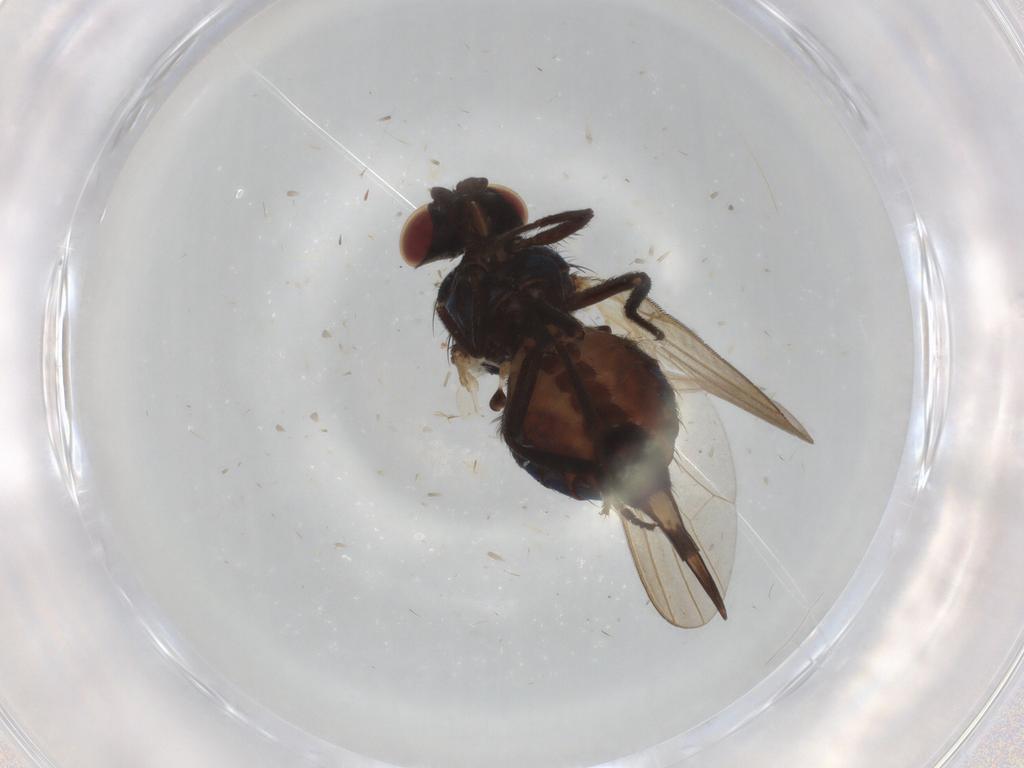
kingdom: Animalia
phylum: Arthropoda
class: Insecta
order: Diptera
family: Lonchaeidae
